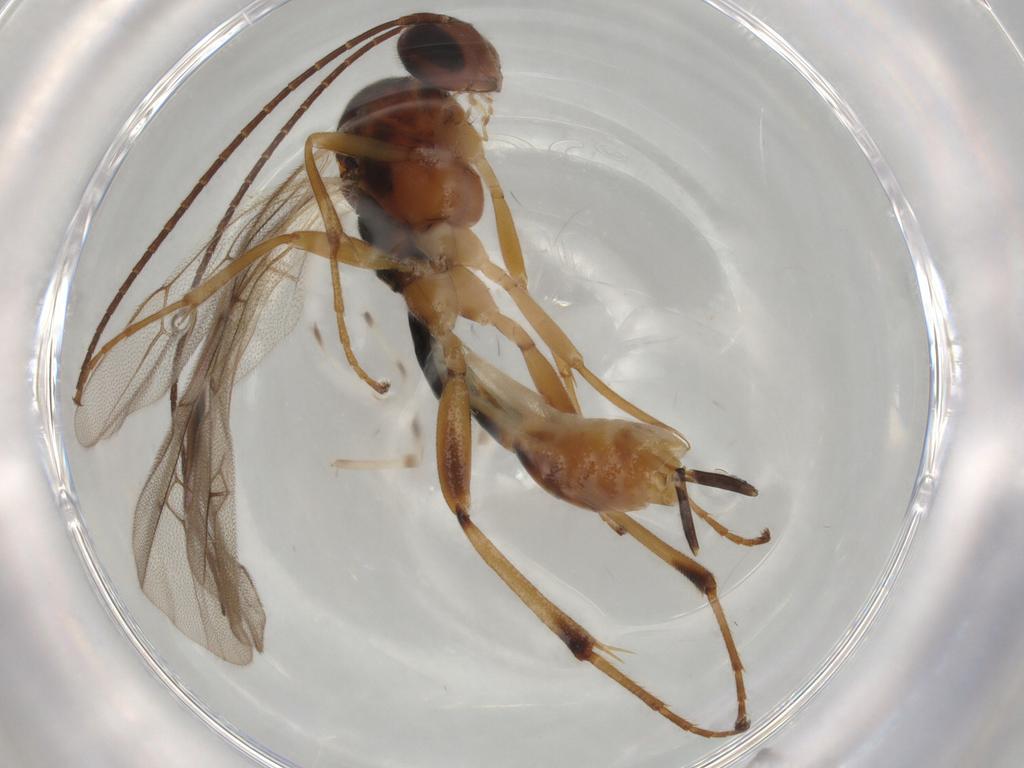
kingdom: Animalia
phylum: Arthropoda
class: Insecta
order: Hymenoptera
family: Ichneumonidae
